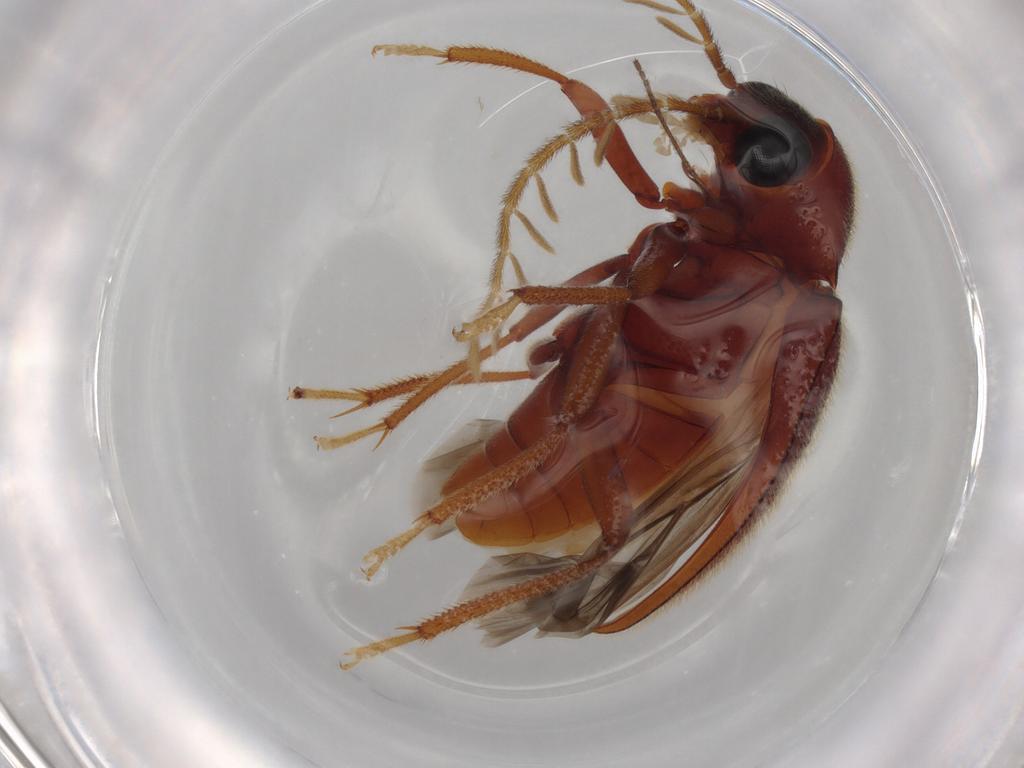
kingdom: Animalia
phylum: Arthropoda
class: Insecta
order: Coleoptera
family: Ptilodactylidae
